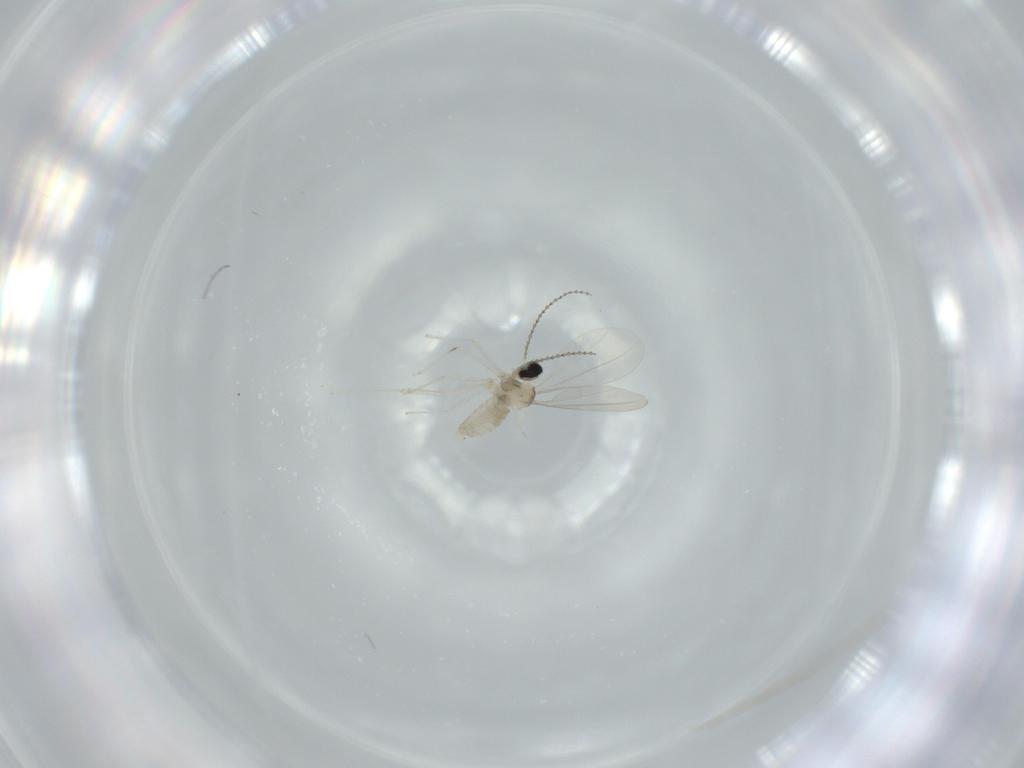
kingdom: Animalia
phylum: Arthropoda
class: Insecta
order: Diptera
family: Cecidomyiidae
